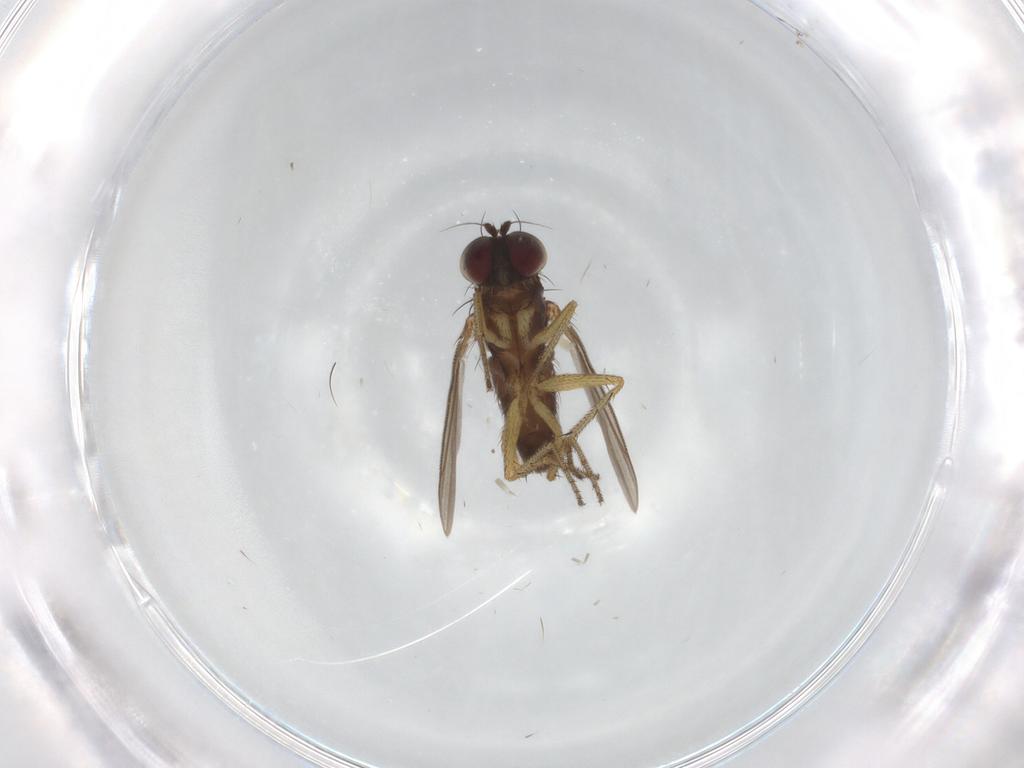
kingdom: Animalia
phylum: Arthropoda
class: Insecta
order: Diptera
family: Dolichopodidae
